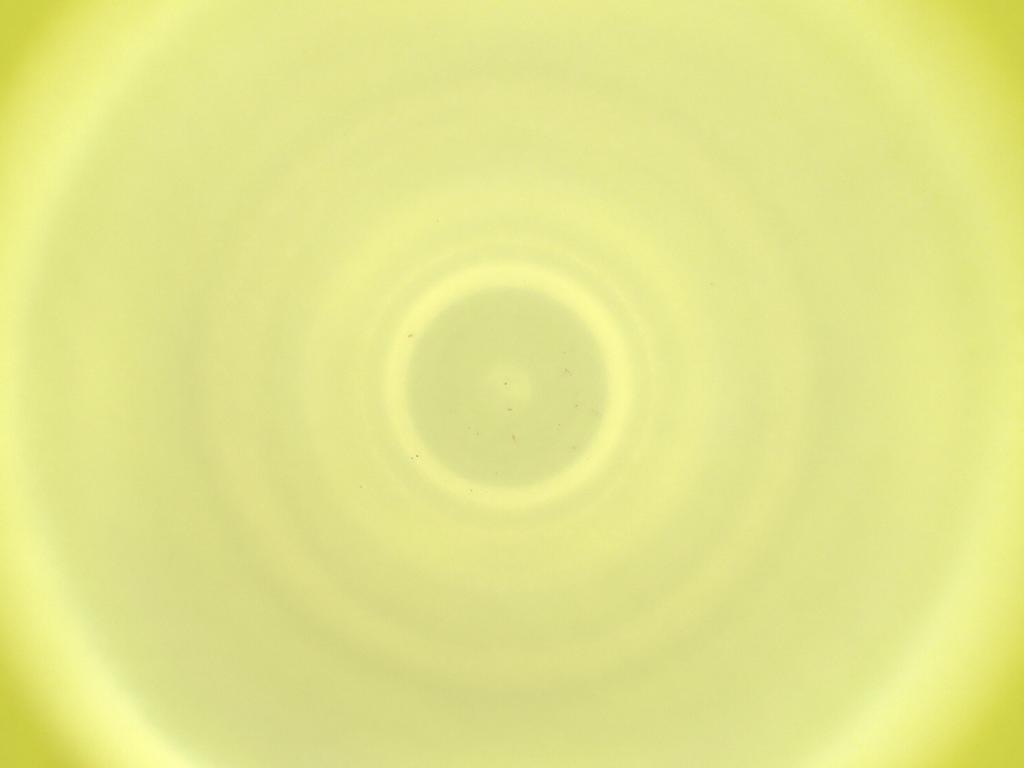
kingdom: Animalia
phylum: Arthropoda
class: Insecta
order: Diptera
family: Cecidomyiidae
